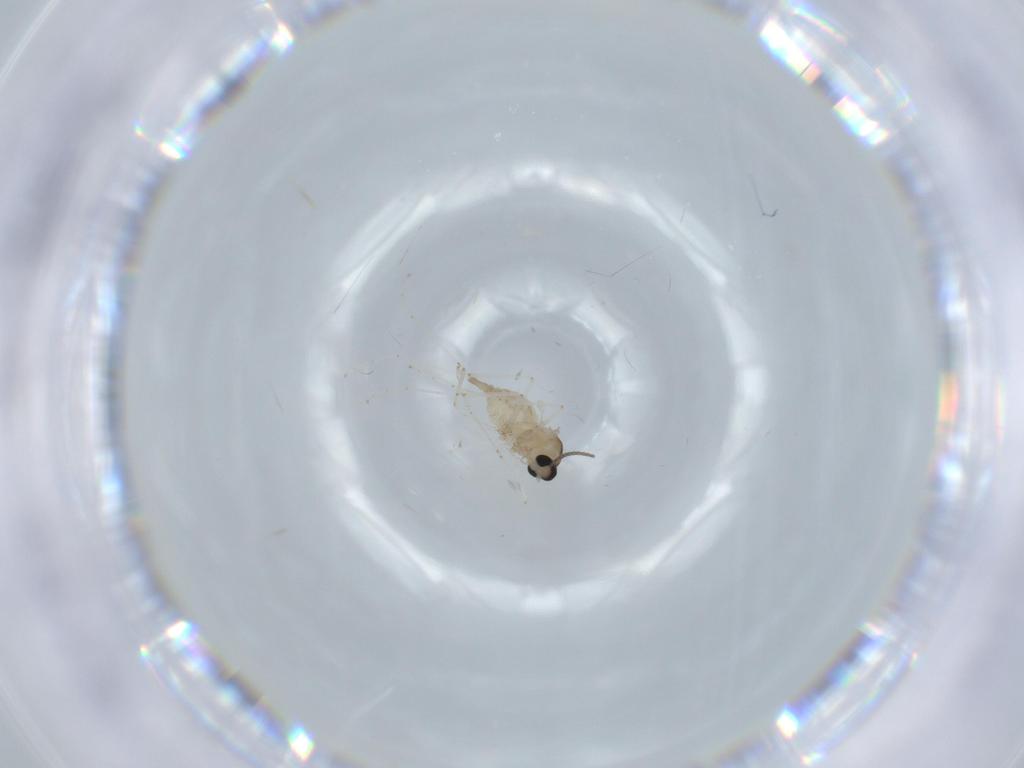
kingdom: Animalia
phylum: Arthropoda
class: Insecta
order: Diptera
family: Cecidomyiidae
